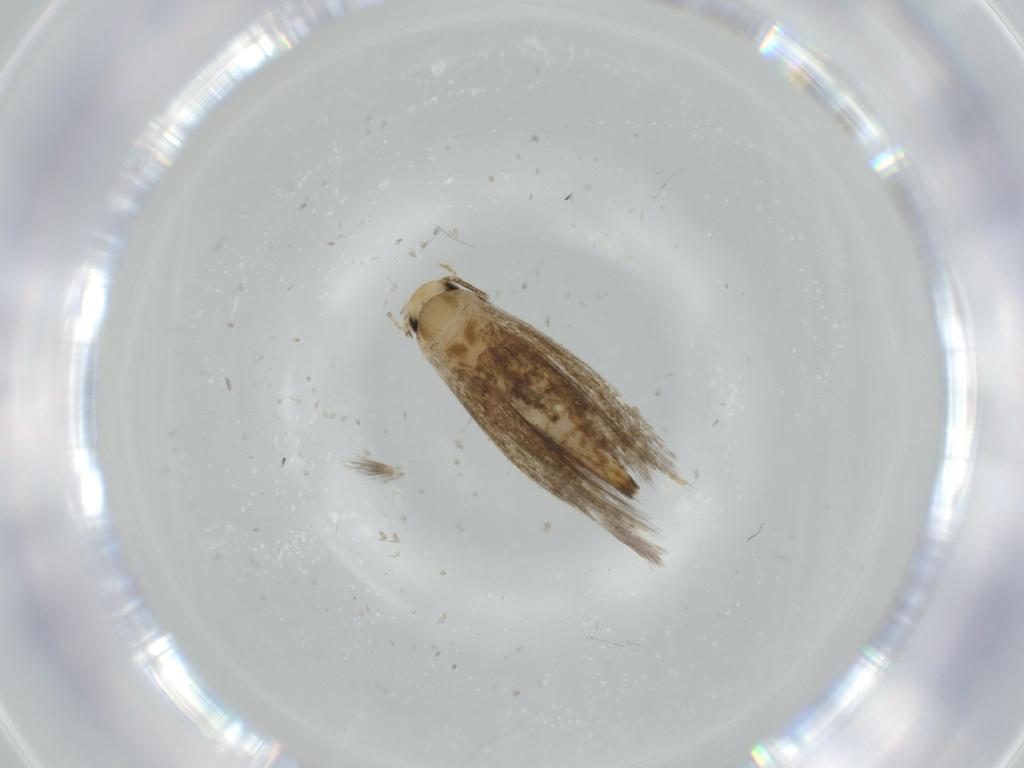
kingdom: Animalia
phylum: Arthropoda
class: Insecta
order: Lepidoptera
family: Tineidae
